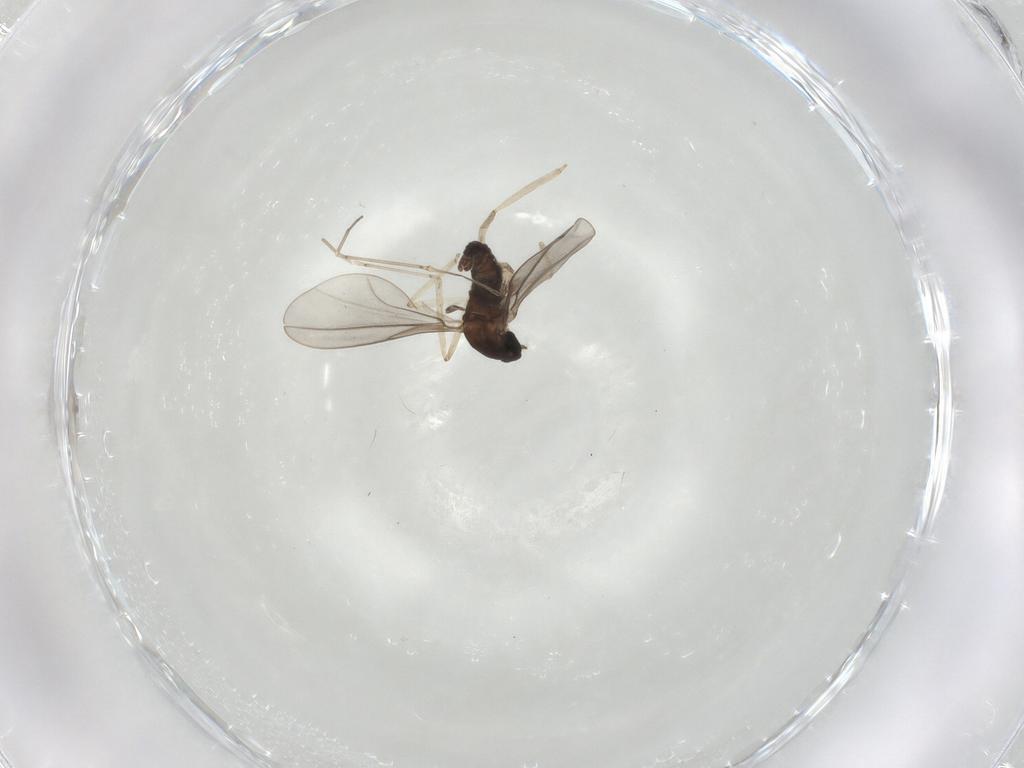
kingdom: Animalia
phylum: Arthropoda
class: Insecta
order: Diptera
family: Cecidomyiidae
